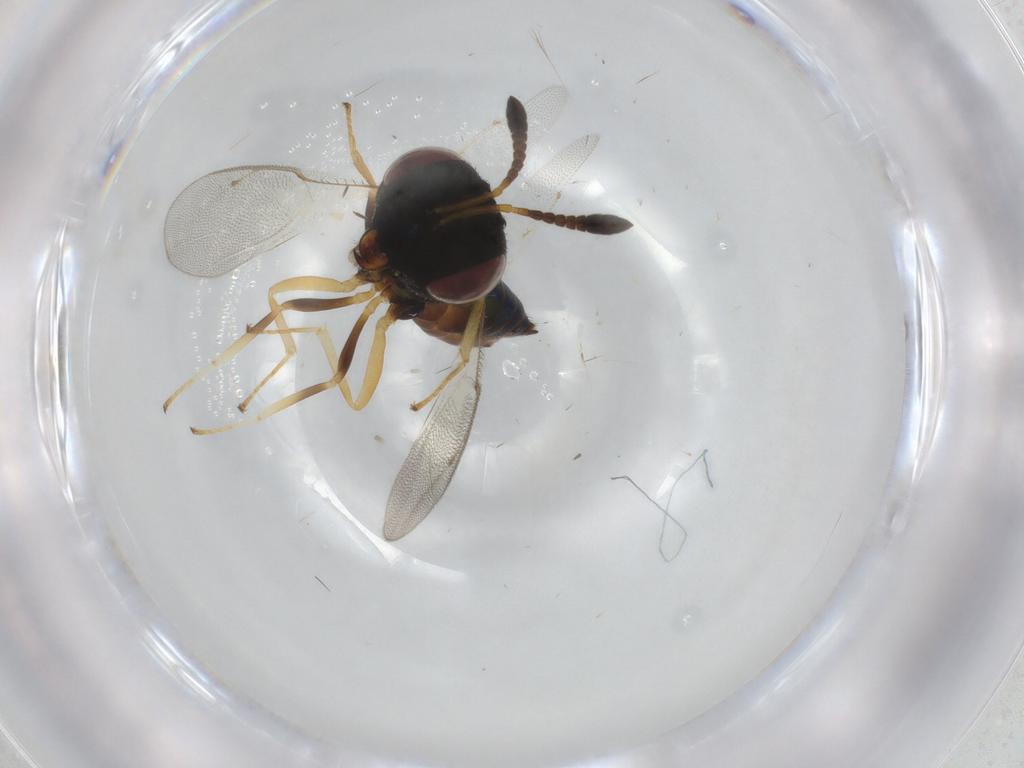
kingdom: Animalia
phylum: Arthropoda
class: Insecta
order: Hymenoptera
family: Pteromalidae
